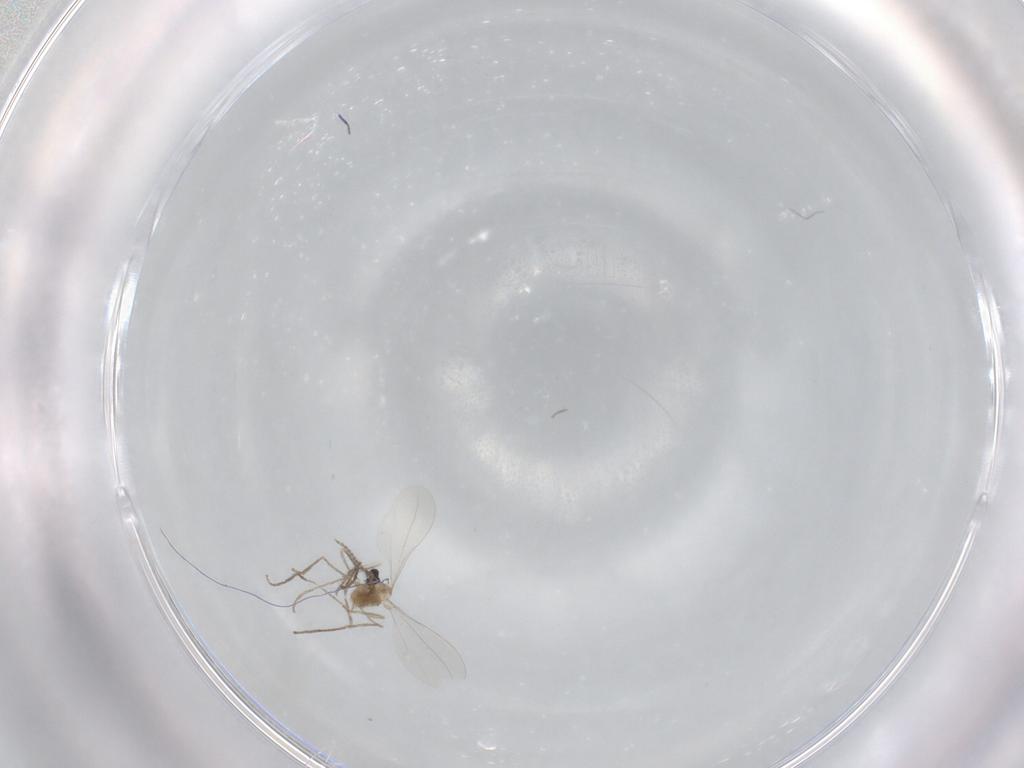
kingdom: Animalia
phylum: Arthropoda
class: Insecta
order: Diptera
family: Cecidomyiidae
